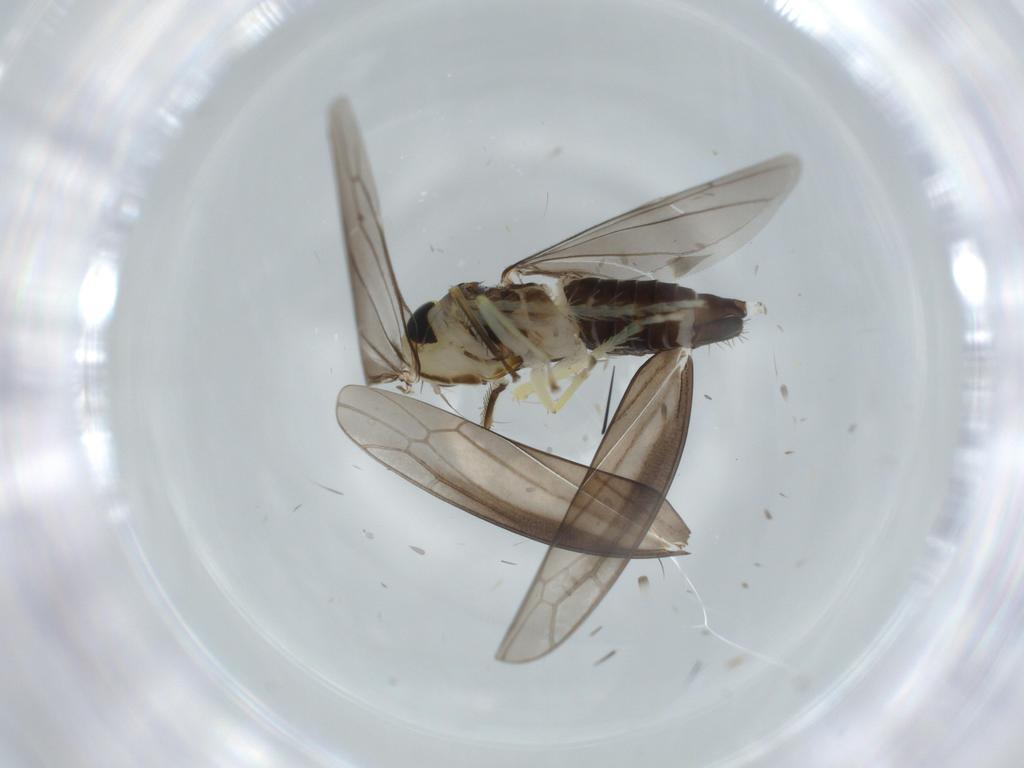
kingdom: Animalia
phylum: Arthropoda
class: Insecta
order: Hemiptera
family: Cicadellidae
